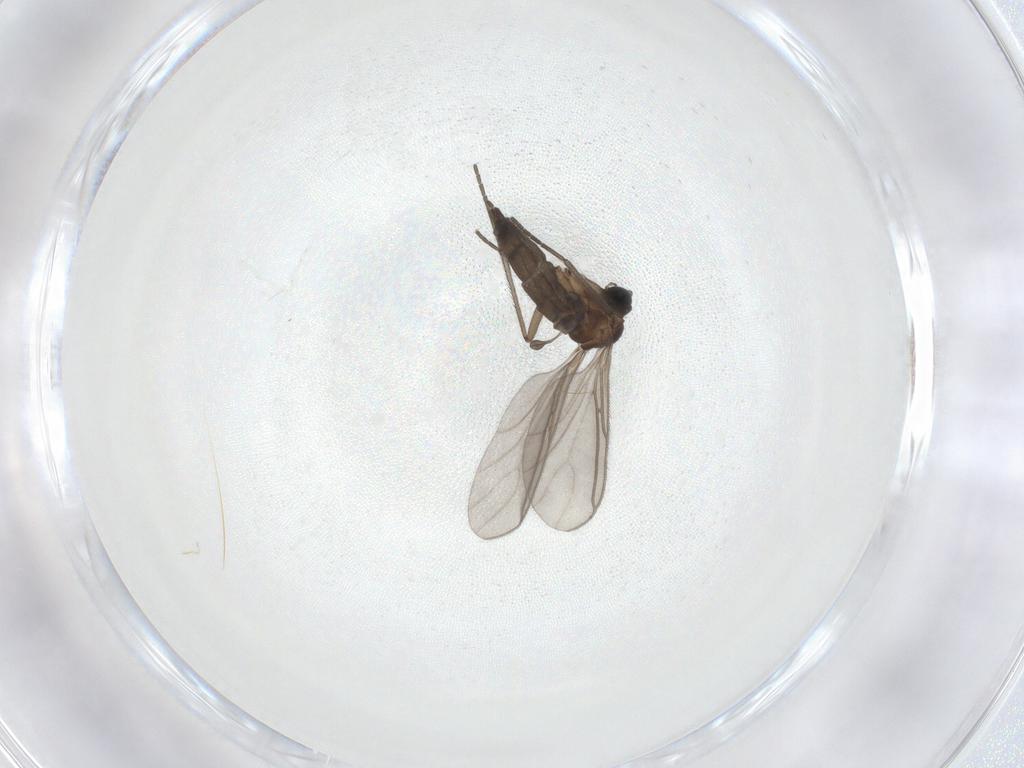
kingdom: Animalia
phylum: Arthropoda
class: Insecta
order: Diptera
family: Sciaridae
